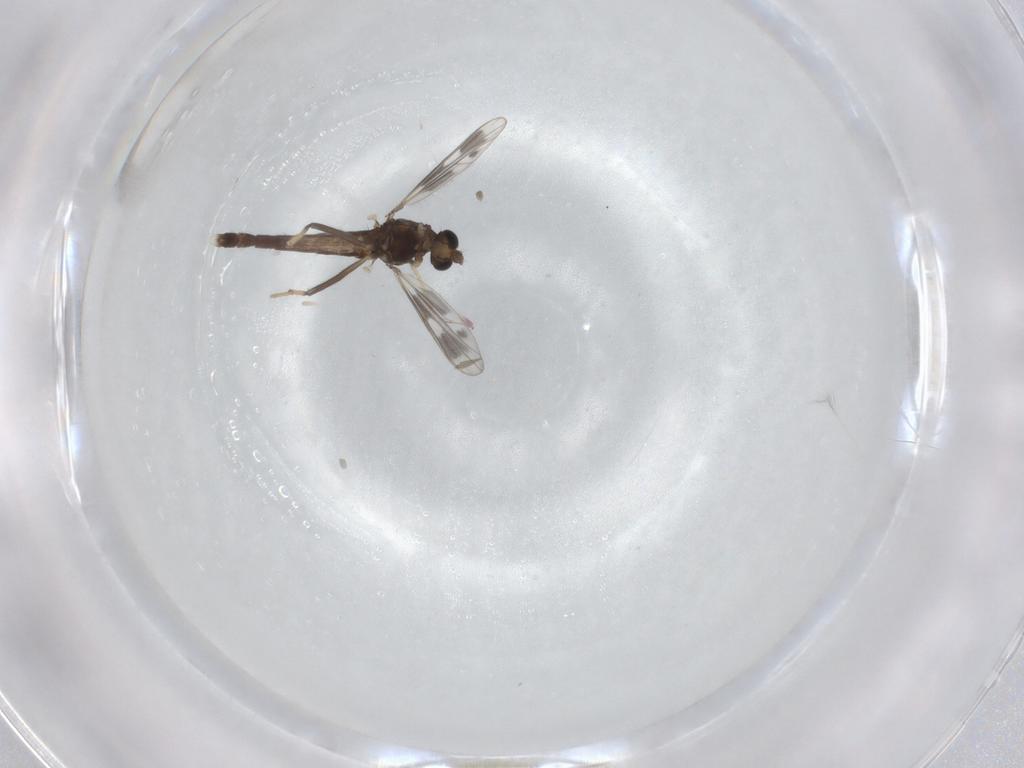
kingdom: Animalia
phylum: Arthropoda
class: Insecta
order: Diptera
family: Chironomidae
